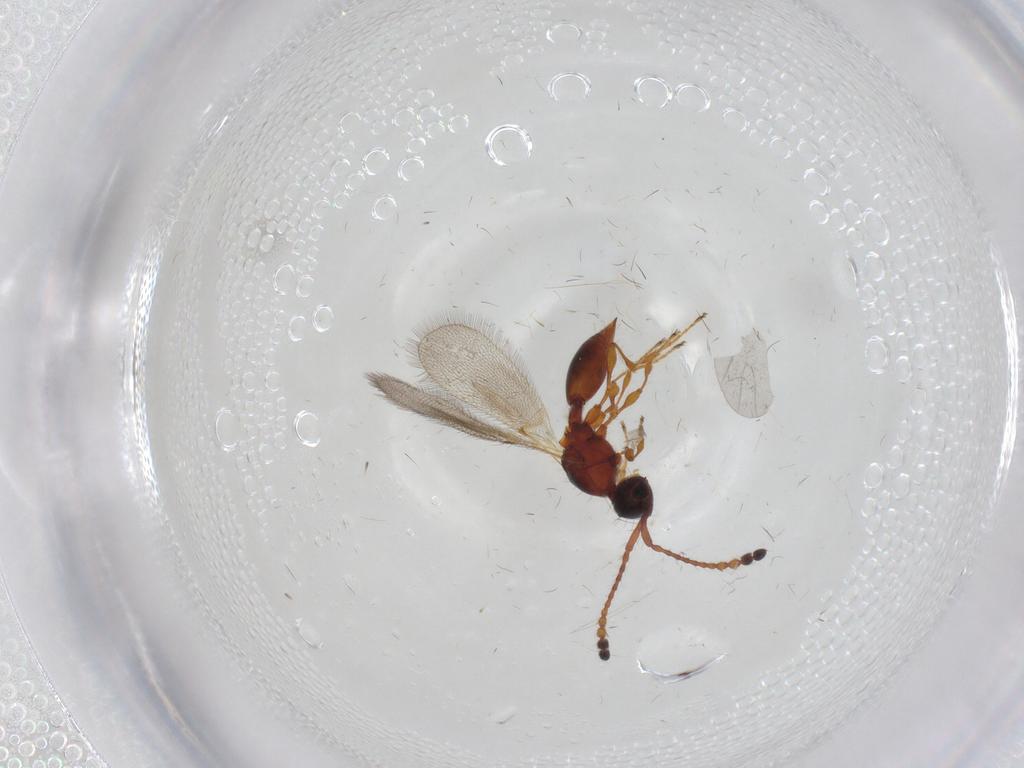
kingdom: Animalia
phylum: Arthropoda
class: Insecta
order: Hymenoptera
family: Diapriidae
